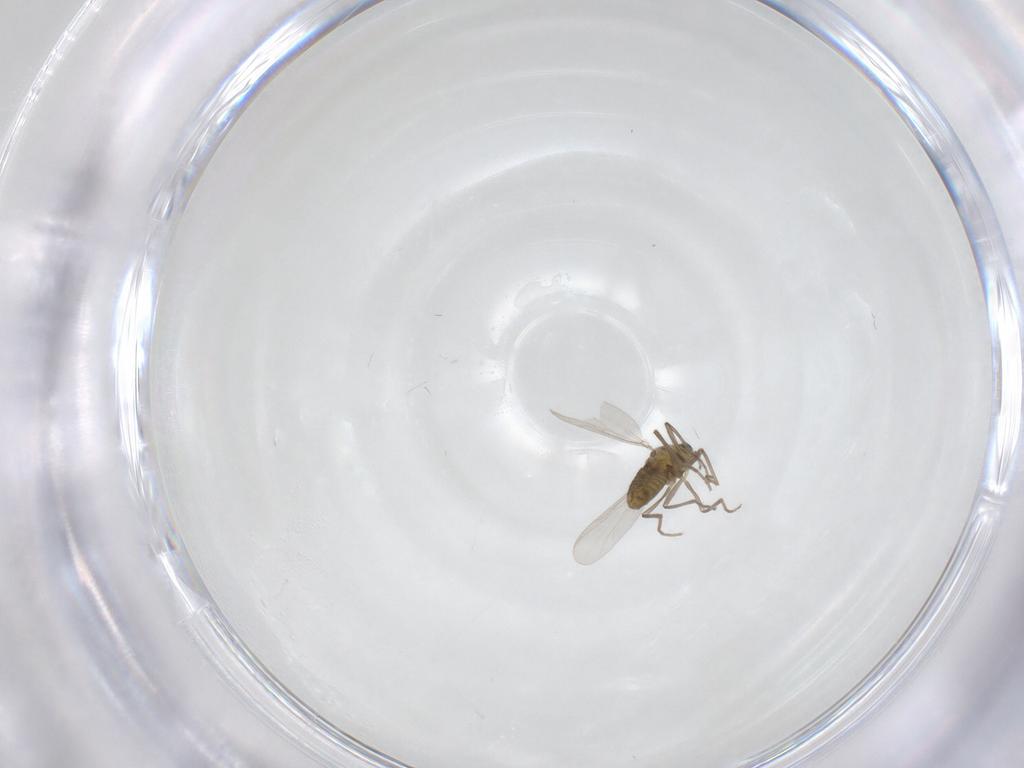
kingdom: Animalia
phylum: Arthropoda
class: Insecta
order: Diptera
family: Chironomidae
